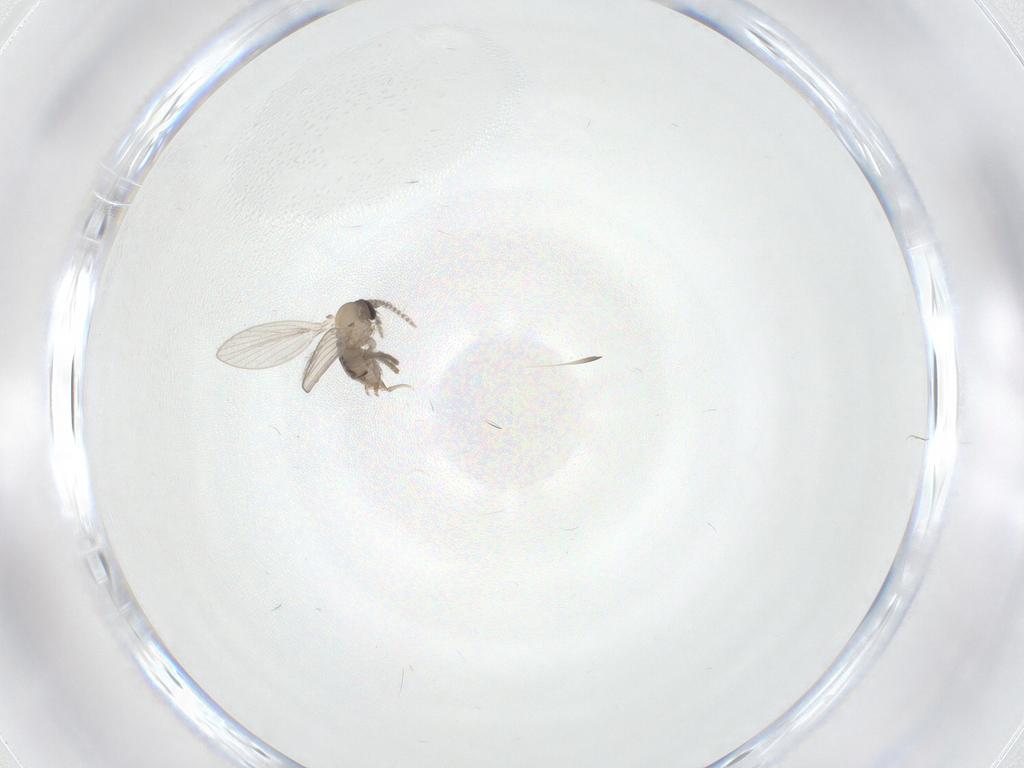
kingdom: Animalia
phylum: Arthropoda
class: Insecta
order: Diptera
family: Psychodidae
